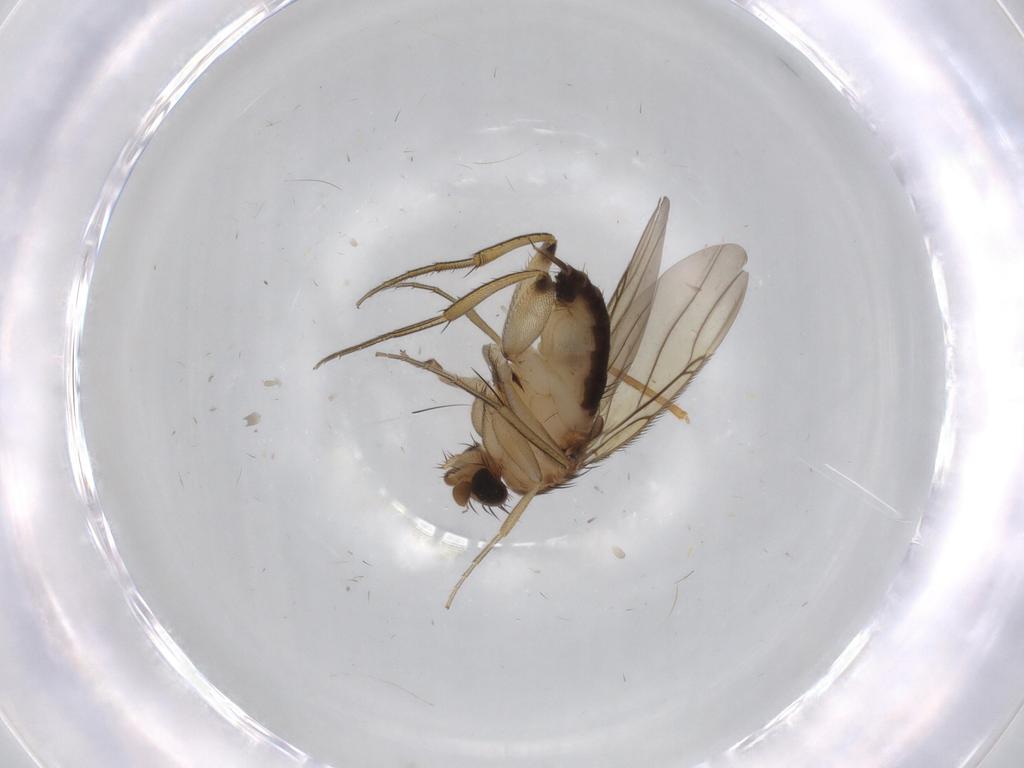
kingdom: Animalia
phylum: Arthropoda
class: Insecta
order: Diptera
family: Phoridae
